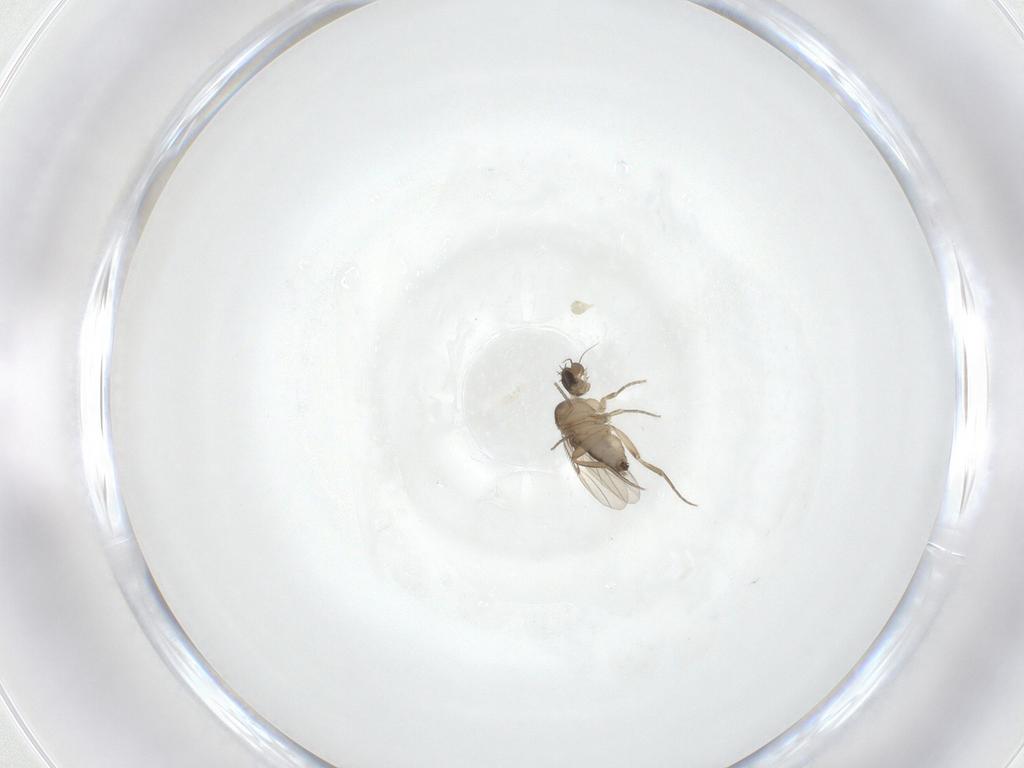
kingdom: Animalia
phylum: Arthropoda
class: Insecta
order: Diptera
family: Phoridae
